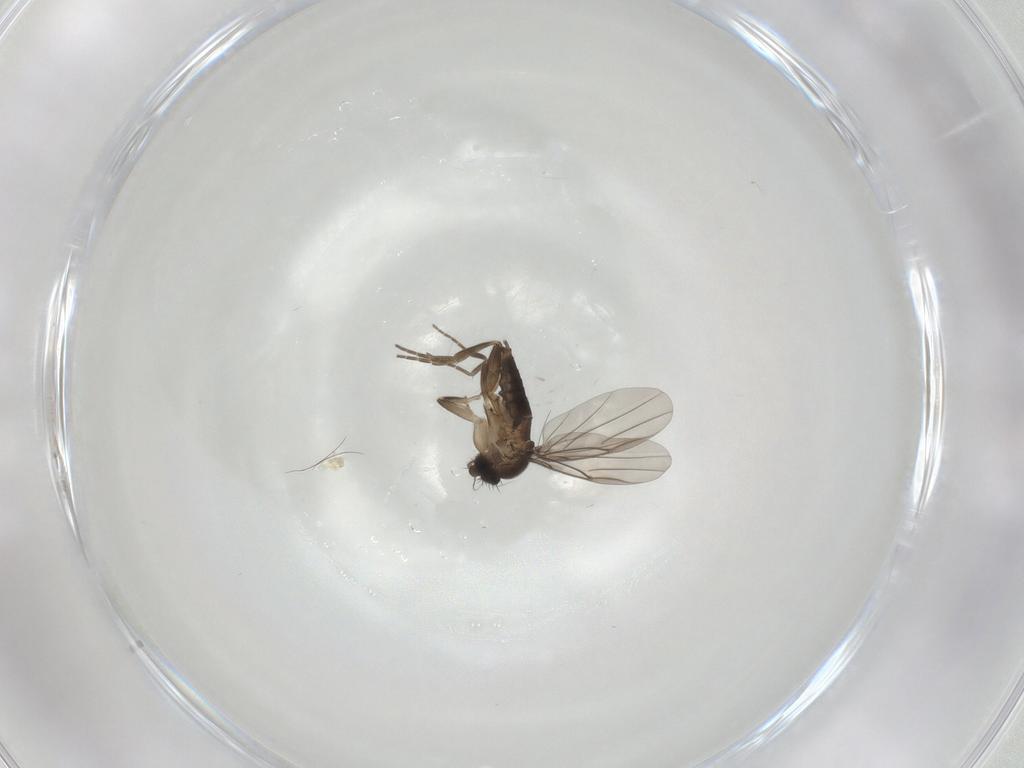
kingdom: Animalia
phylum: Arthropoda
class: Insecta
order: Diptera
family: Phoridae
